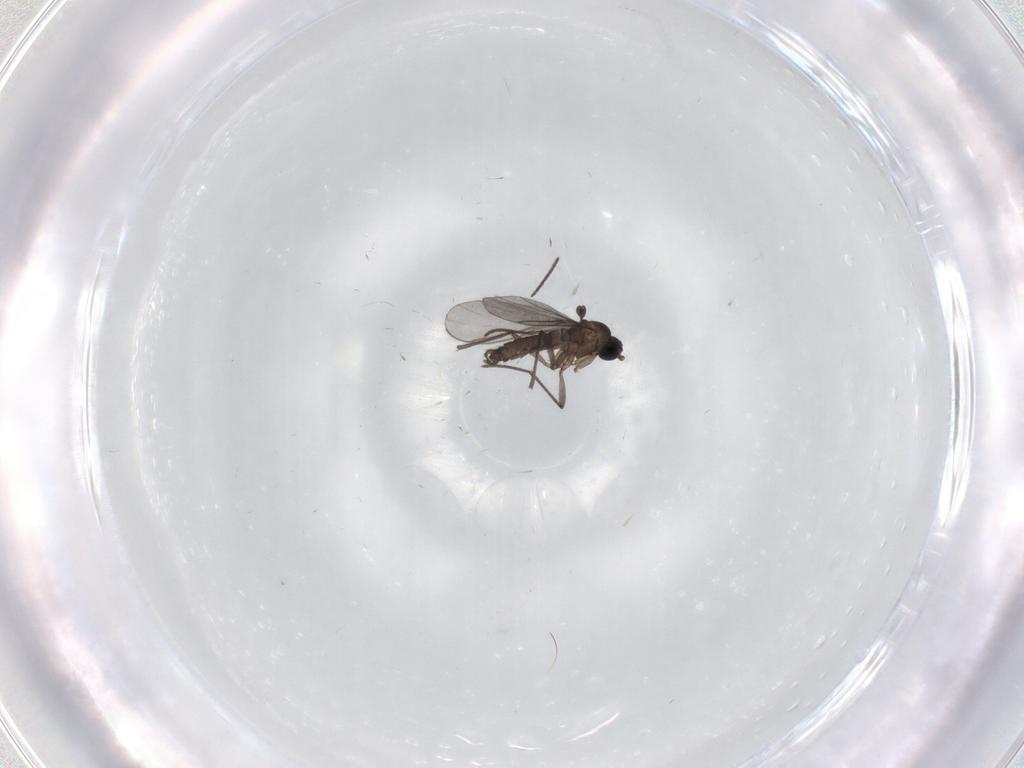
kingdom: Animalia
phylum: Arthropoda
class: Insecta
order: Diptera
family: Sciaridae
